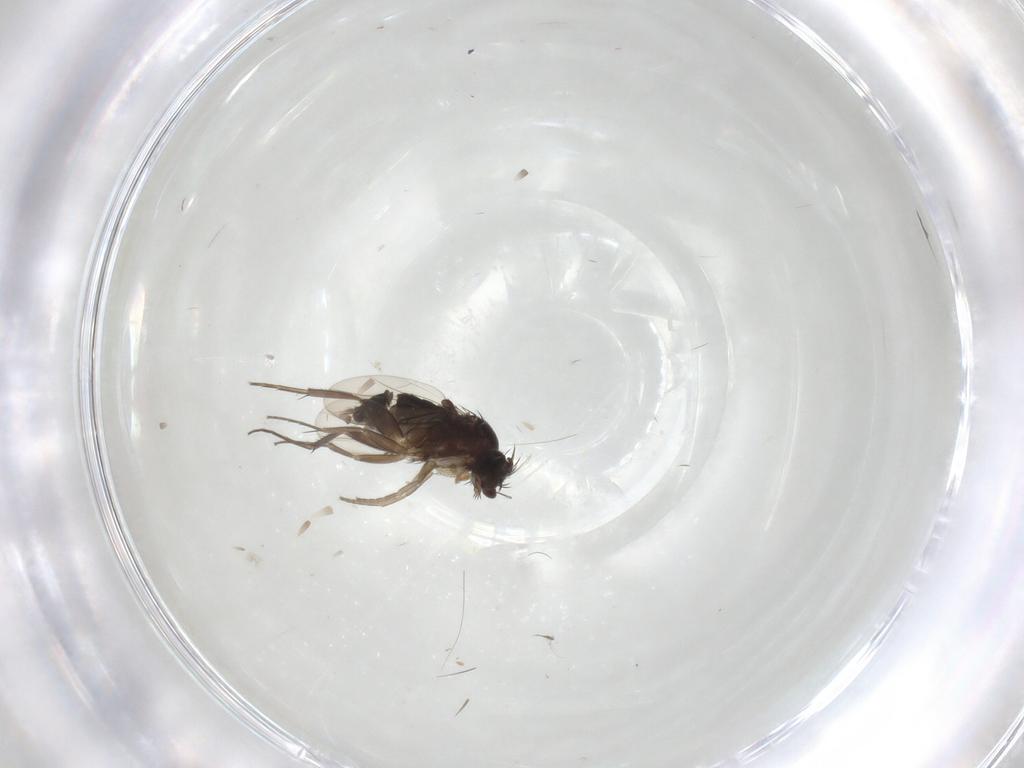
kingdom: Animalia
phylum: Arthropoda
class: Insecta
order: Diptera
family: Phoridae
